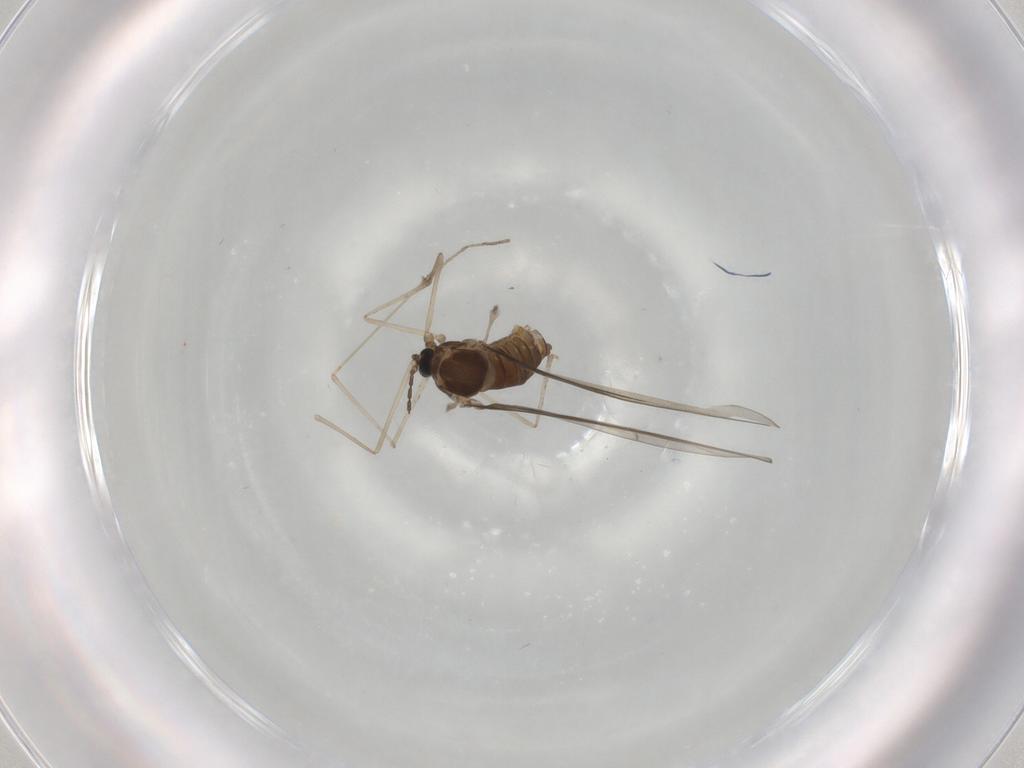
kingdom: Animalia
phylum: Arthropoda
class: Insecta
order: Diptera
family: Cecidomyiidae
